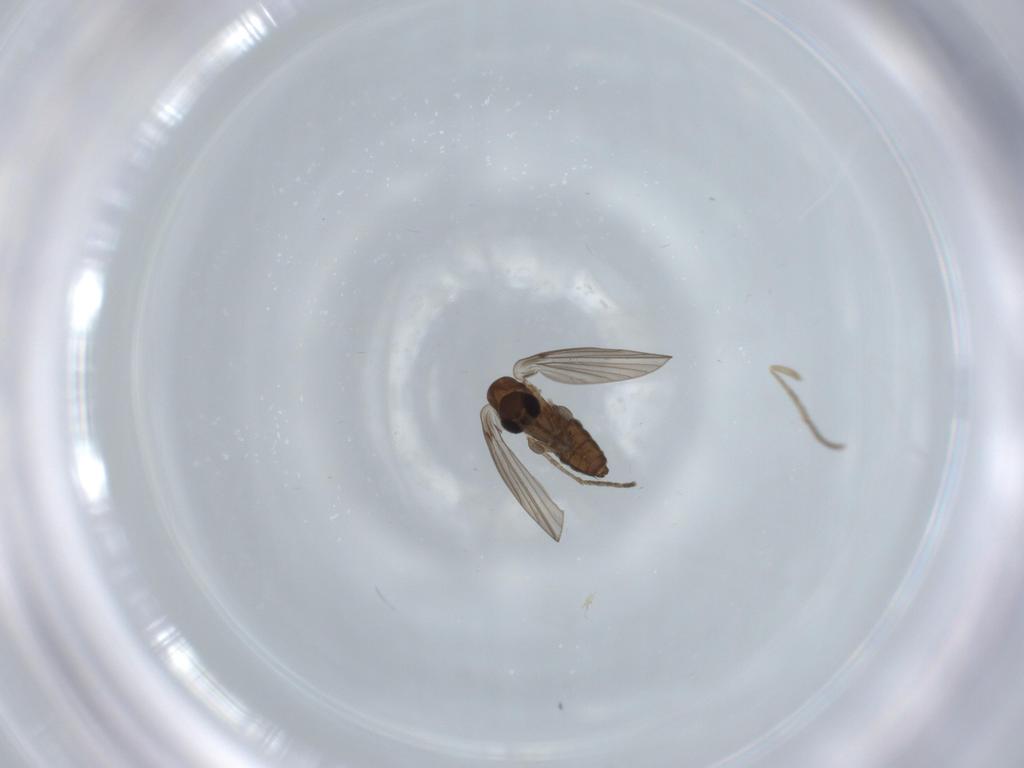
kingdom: Animalia
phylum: Arthropoda
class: Insecta
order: Diptera
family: Psychodidae
